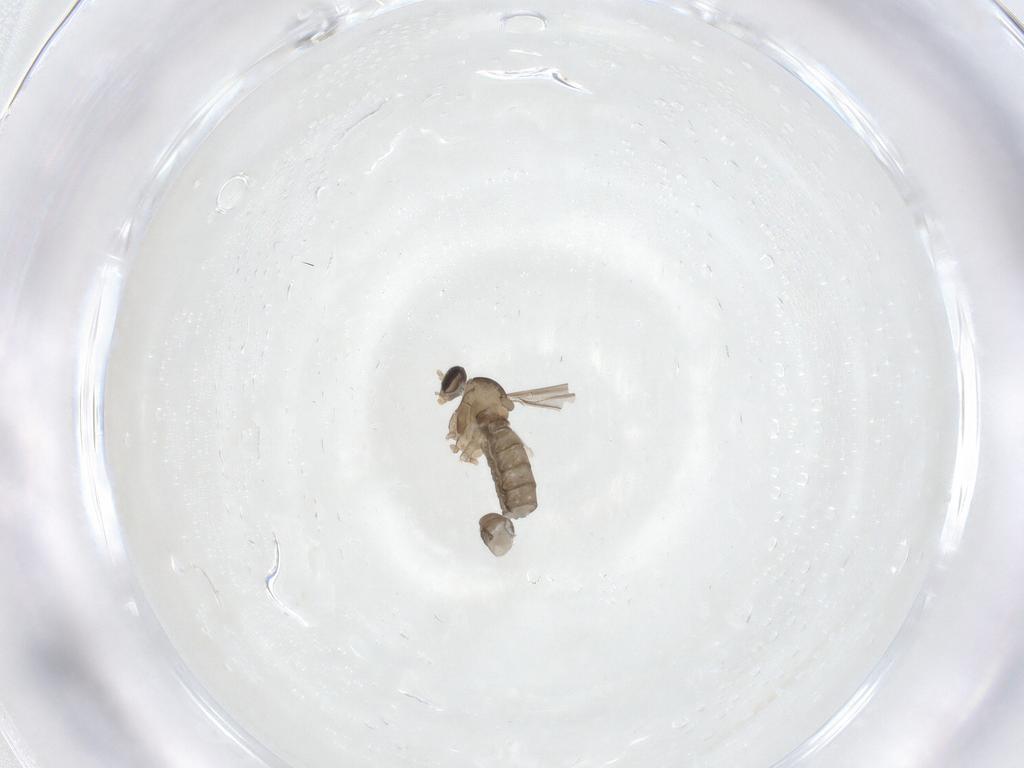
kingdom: Animalia
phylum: Arthropoda
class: Insecta
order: Diptera
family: Cecidomyiidae
